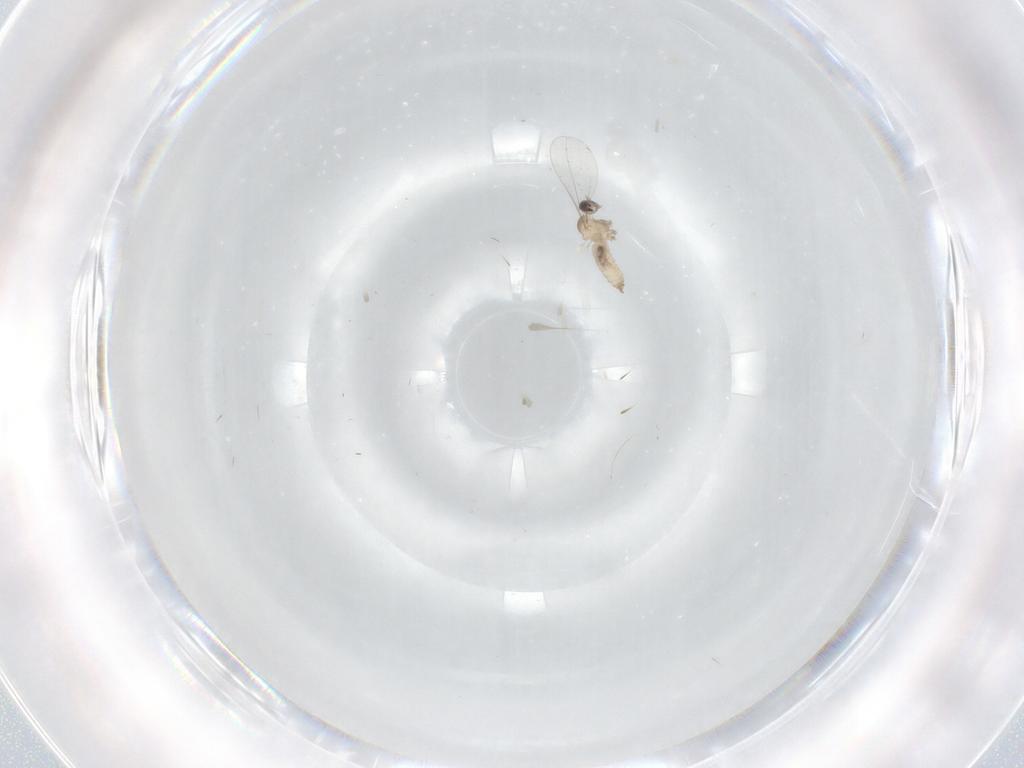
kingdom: Animalia
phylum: Arthropoda
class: Insecta
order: Diptera
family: Cecidomyiidae
